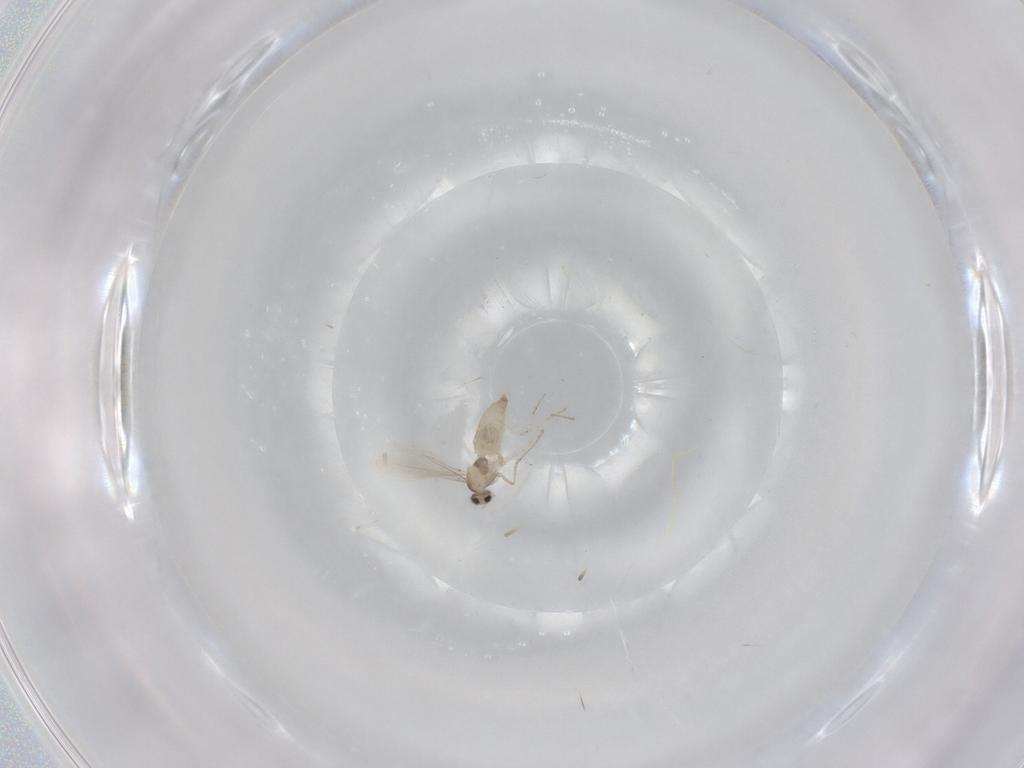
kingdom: Animalia
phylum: Arthropoda
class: Insecta
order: Diptera
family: Cecidomyiidae
